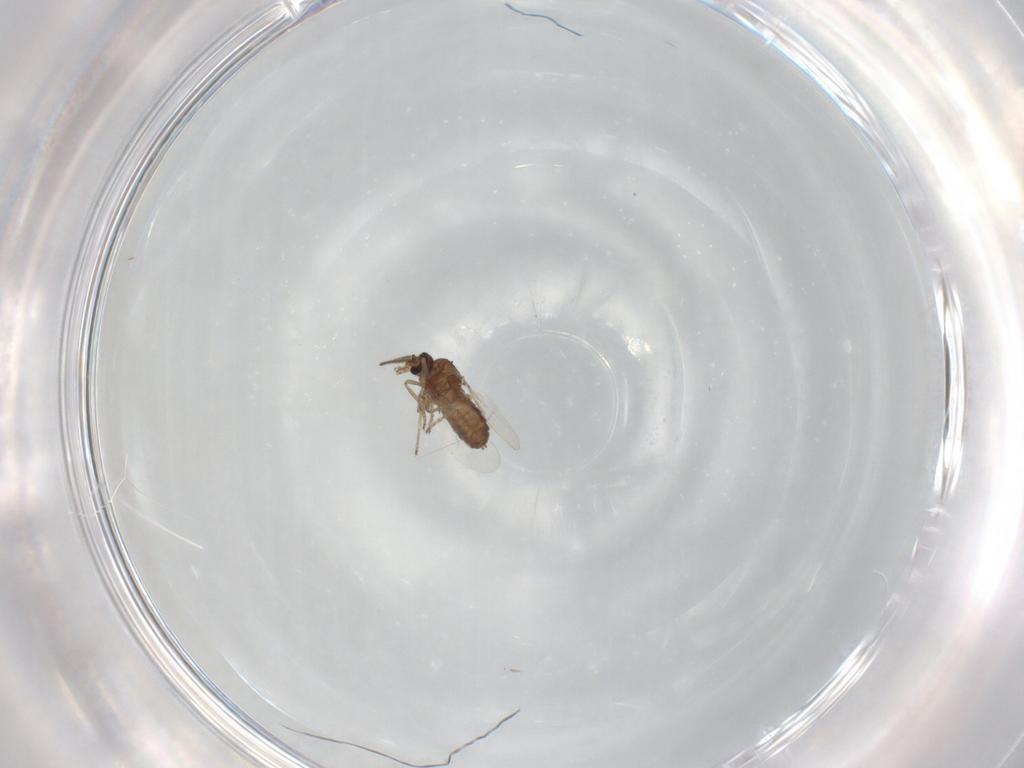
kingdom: Animalia
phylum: Arthropoda
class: Insecta
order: Diptera
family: Ceratopogonidae
